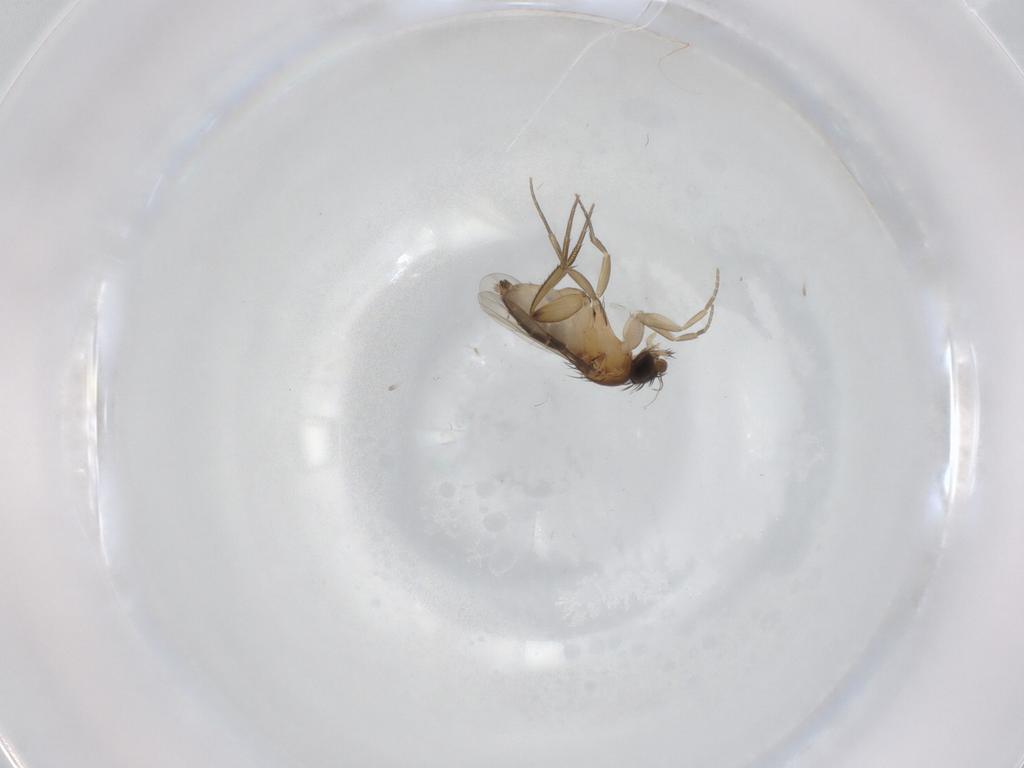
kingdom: Animalia
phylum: Arthropoda
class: Insecta
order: Diptera
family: Phoridae
